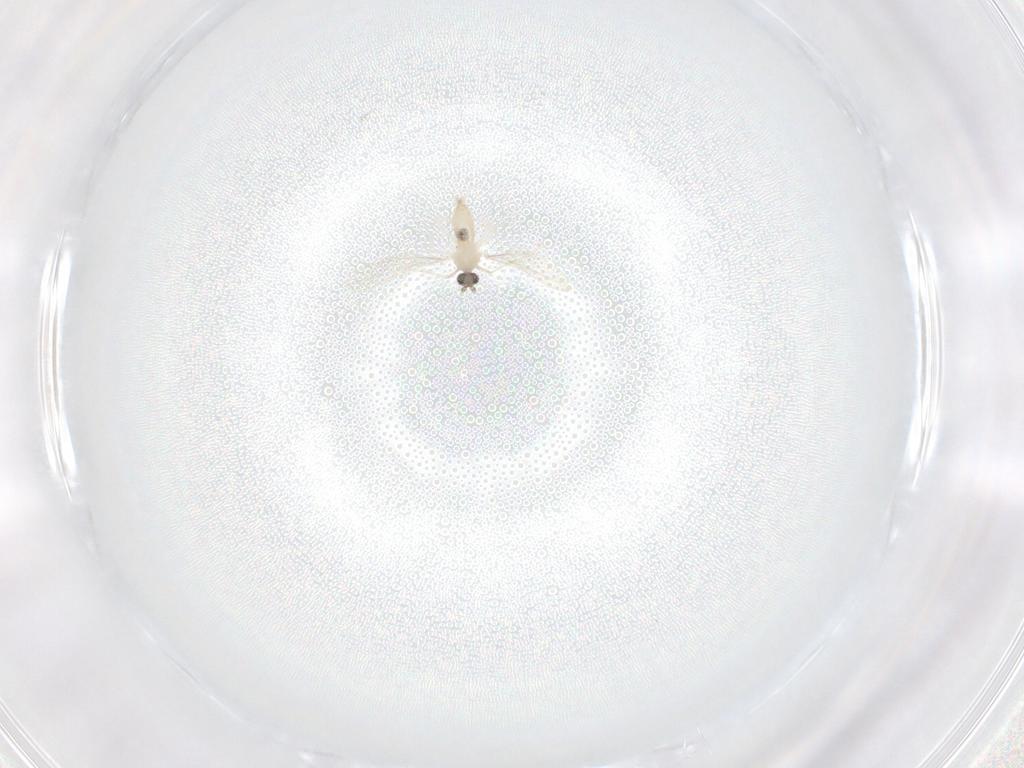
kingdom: Animalia
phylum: Arthropoda
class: Insecta
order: Diptera
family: Cecidomyiidae
